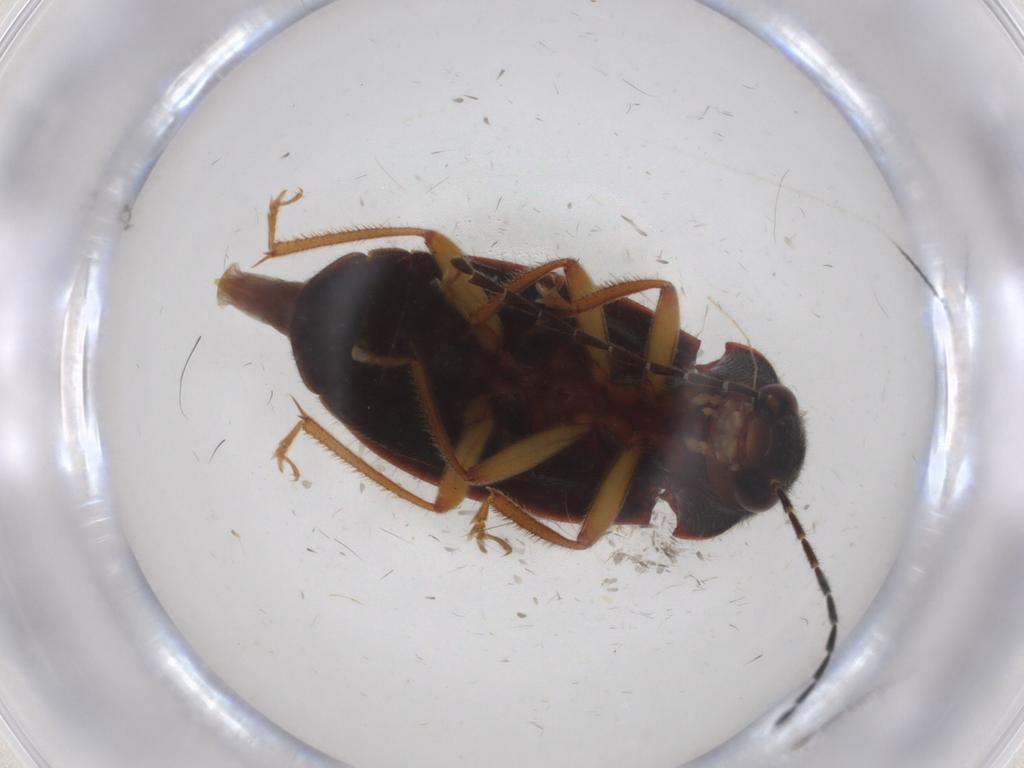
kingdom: Animalia
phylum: Arthropoda
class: Insecta
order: Coleoptera
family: Ptilodactylidae
